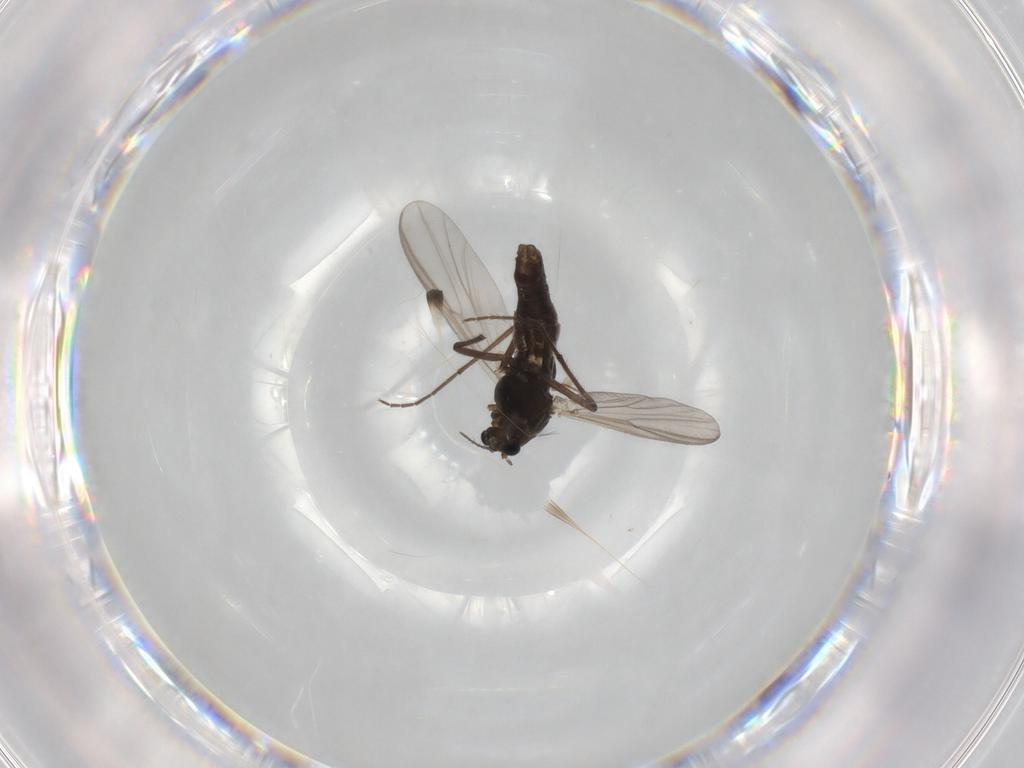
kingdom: Animalia
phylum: Arthropoda
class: Insecta
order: Diptera
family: Chironomidae
